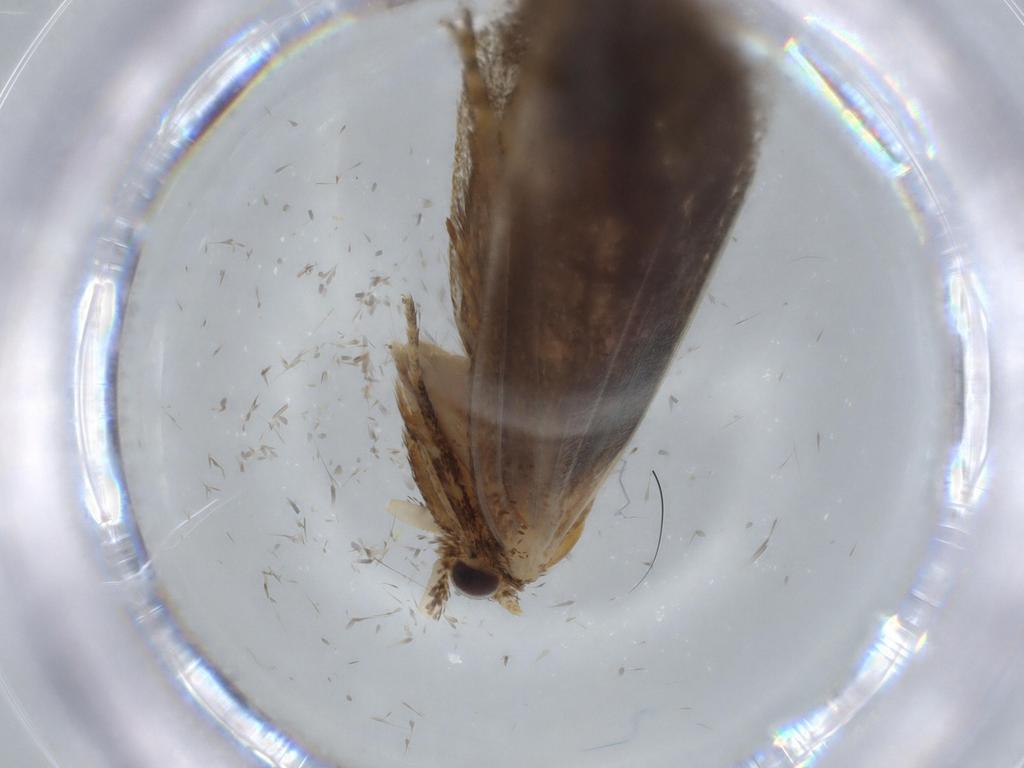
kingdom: Animalia
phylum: Arthropoda
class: Insecta
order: Lepidoptera
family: Tineidae
